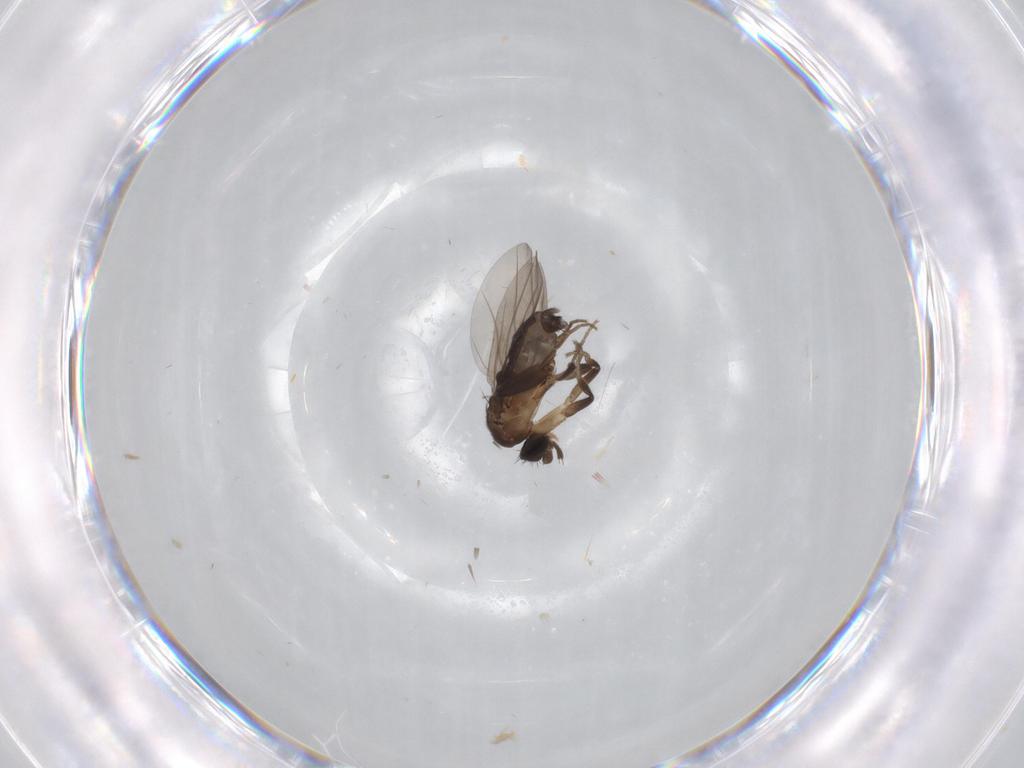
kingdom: Animalia
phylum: Arthropoda
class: Insecta
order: Diptera
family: Phoridae
